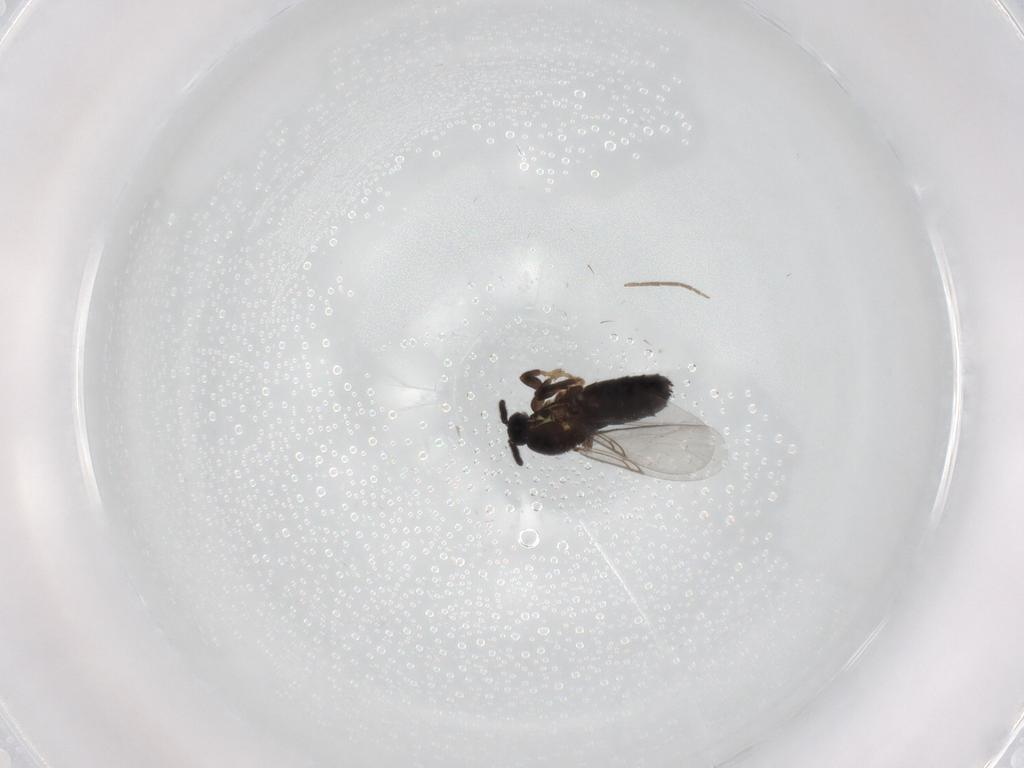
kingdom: Animalia
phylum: Arthropoda
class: Insecta
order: Diptera
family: Scatopsidae
